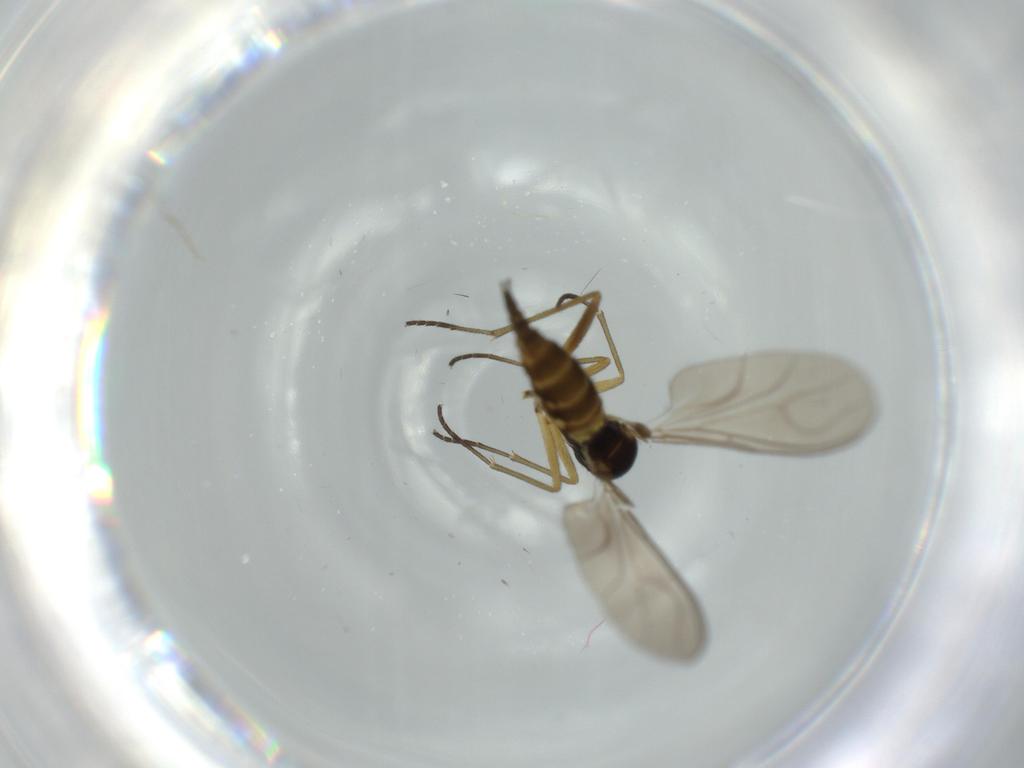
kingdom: Animalia
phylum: Arthropoda
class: Insecta
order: Diptera
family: Sciaridae
